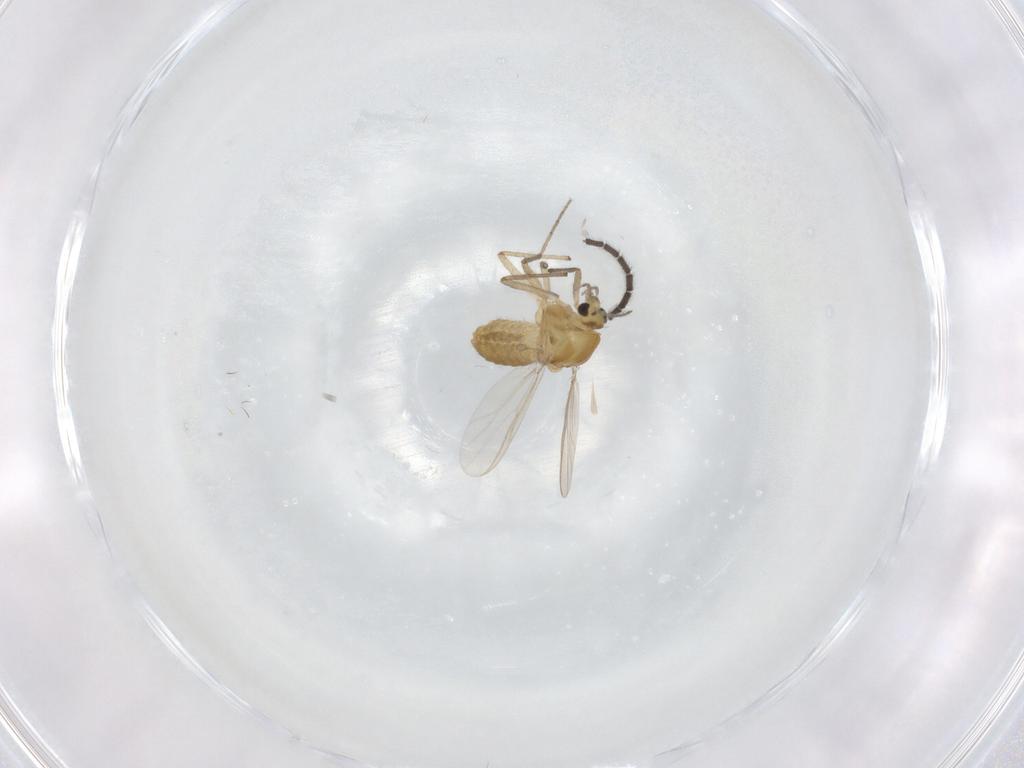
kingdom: Animalia
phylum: Arthropoda
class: Insecta
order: Diptera
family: Chironomidae
